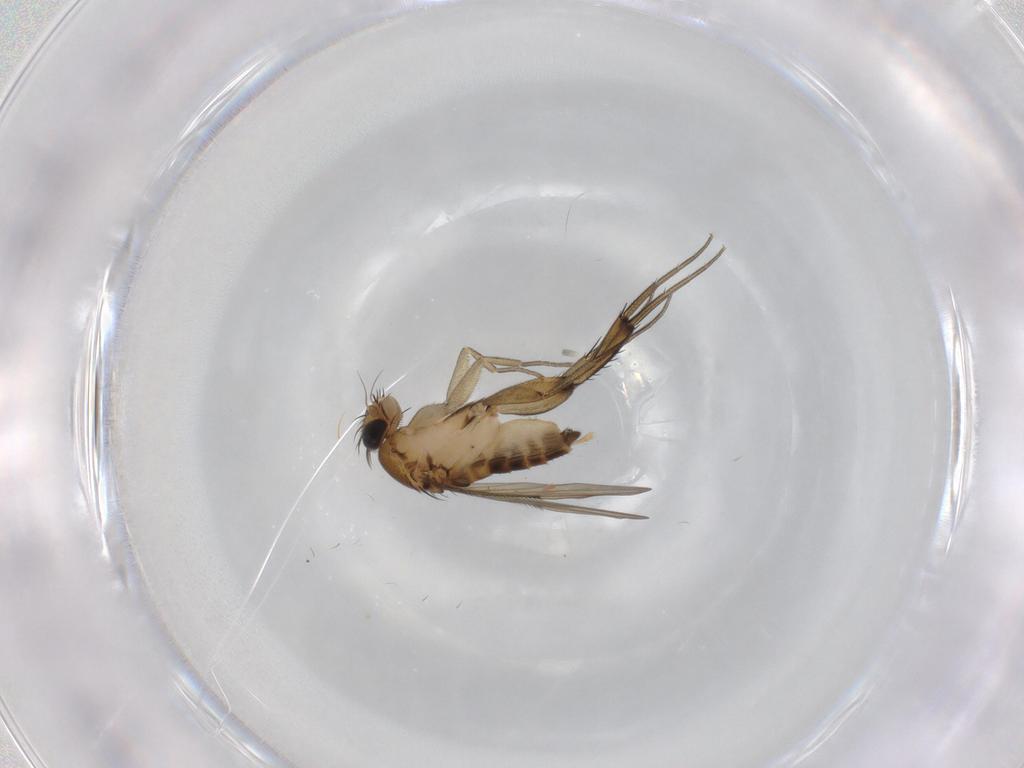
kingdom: Animalia
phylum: Arthropoda
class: Insecta
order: Diptera
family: Phoridae
